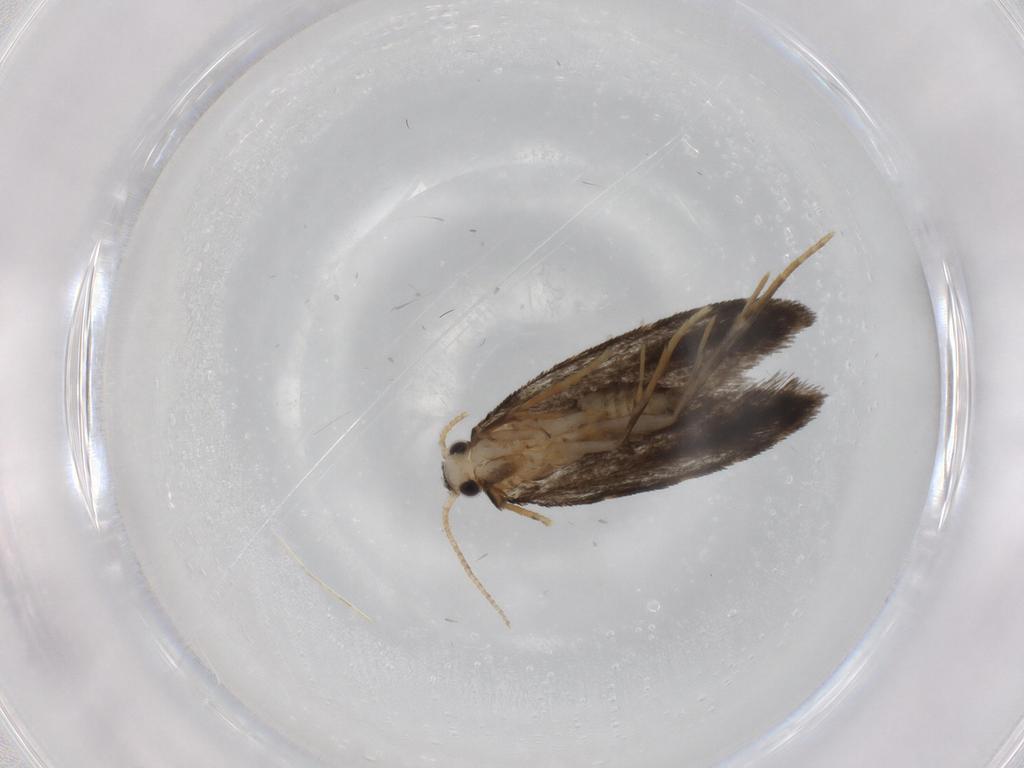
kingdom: Animalia
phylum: Arthropoda
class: Insecta
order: Lepidoptera
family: Psychidae
